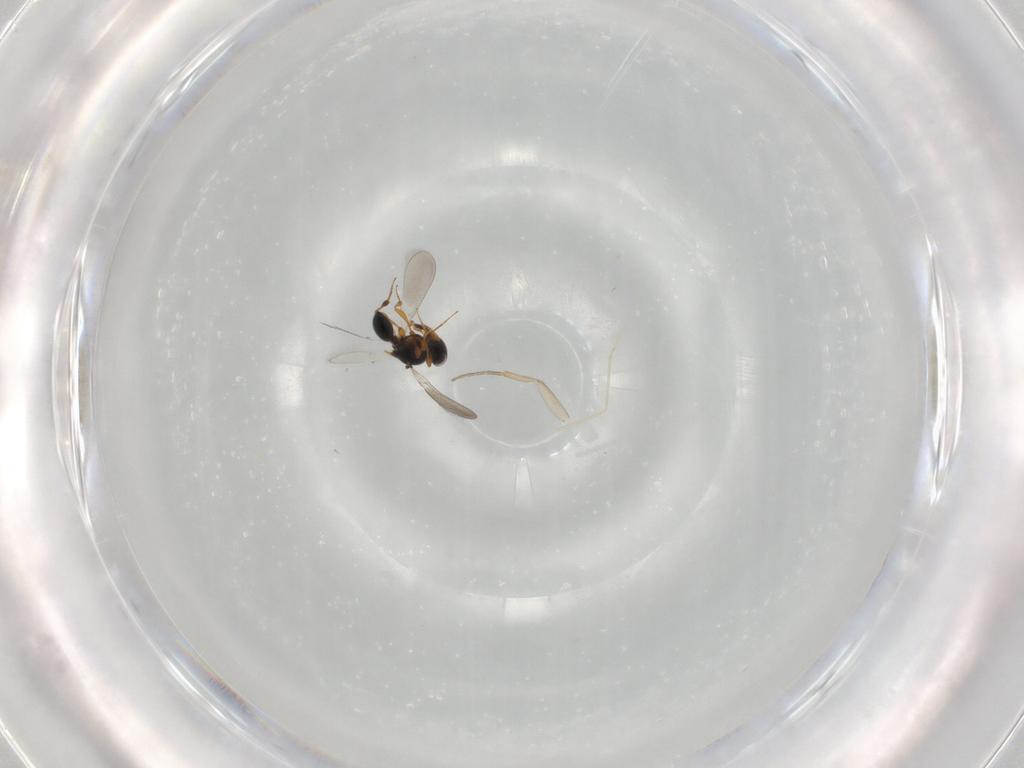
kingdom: Animalia
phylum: Arthropoda
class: Insecta
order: Hymenoptera
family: Platygastridae
